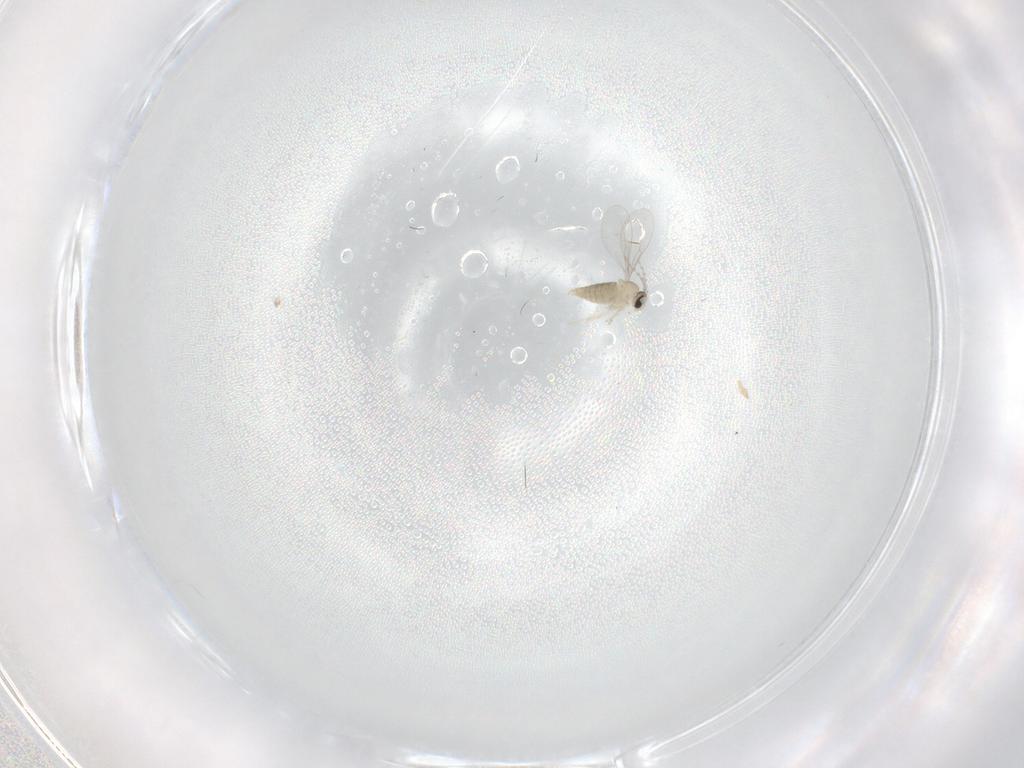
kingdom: Animalia
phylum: Arthropoda
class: Insecta
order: Diptera
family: Cecidomyiidae
